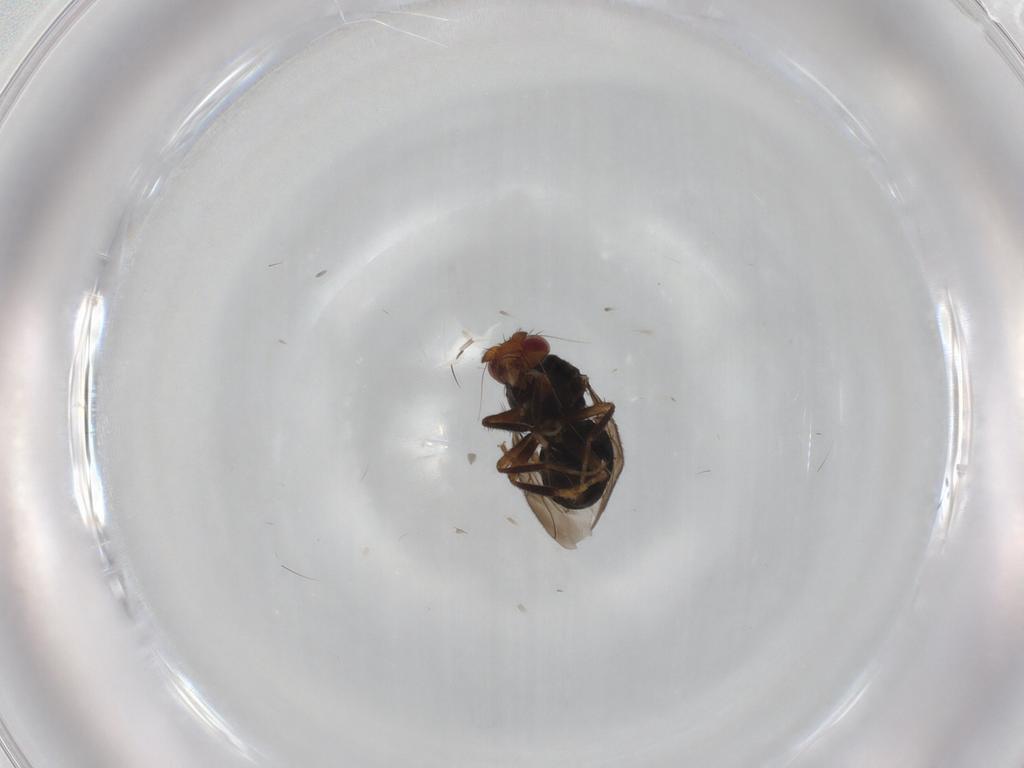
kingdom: Animalia
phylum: Arthropoda
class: Insecta
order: Diptera
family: Sphaeroceridae
